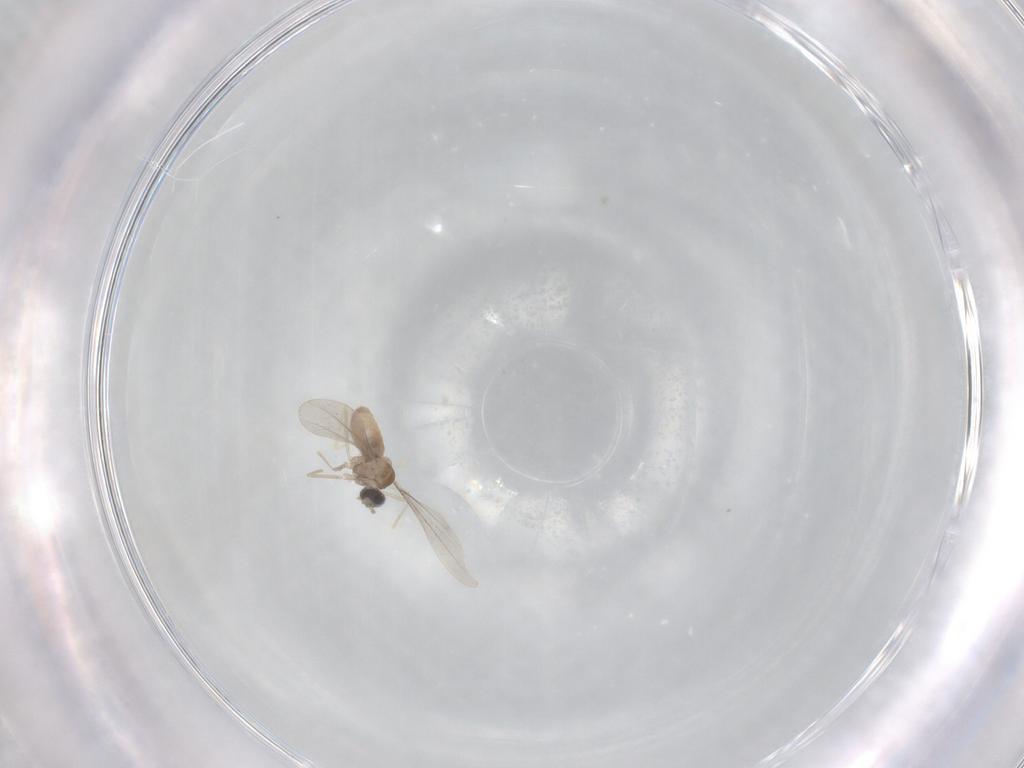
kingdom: Animalia
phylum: Arthropoda
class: Insecta
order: Diptera
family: Cecidomyiidae
